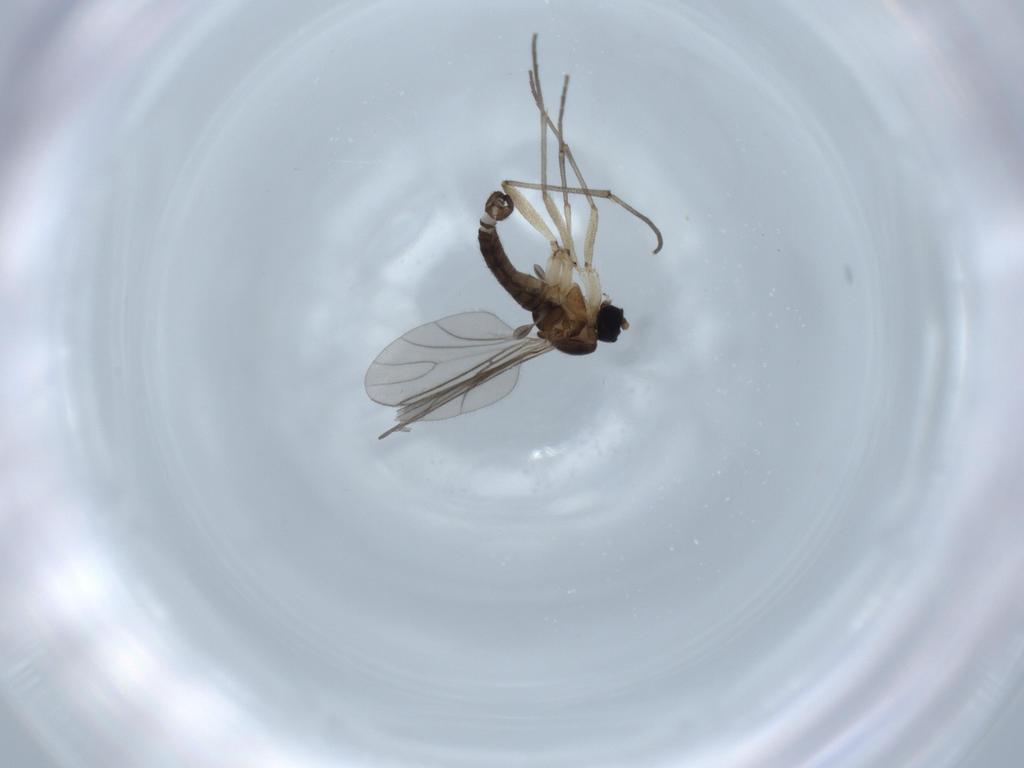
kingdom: Animalia
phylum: Arthropoda
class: Insecta
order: Diptera
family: Sciaridae
